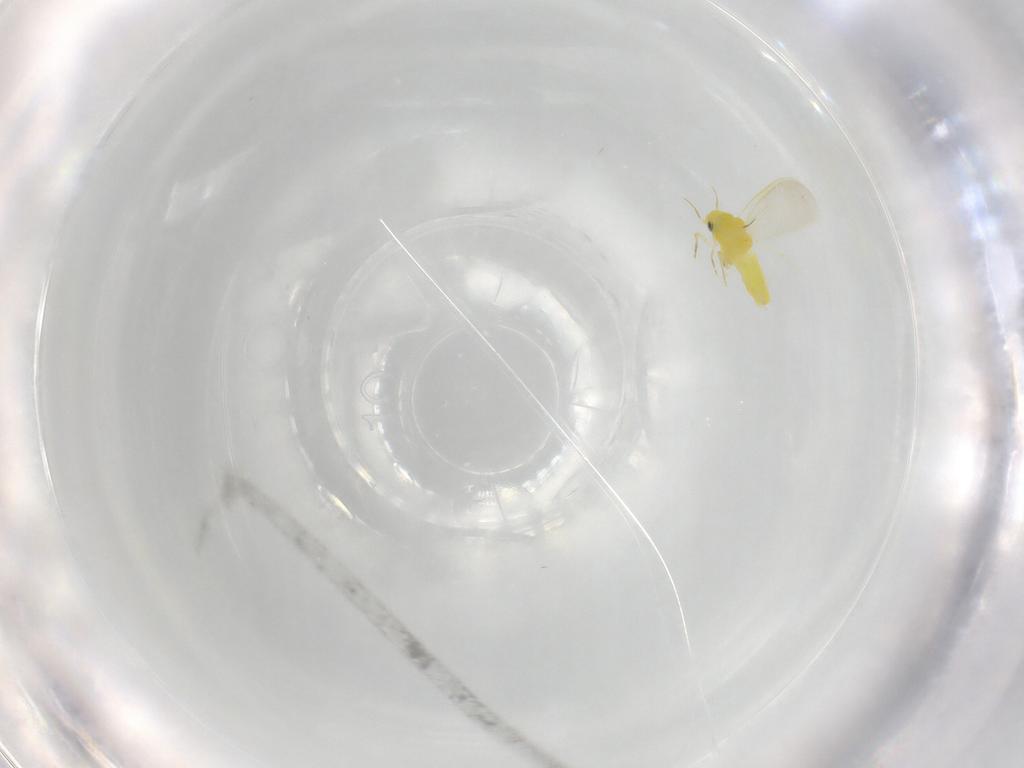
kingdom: Animalia
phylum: Arthropoda
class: Insecta
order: Hemiptera
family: Aleyrodidae
